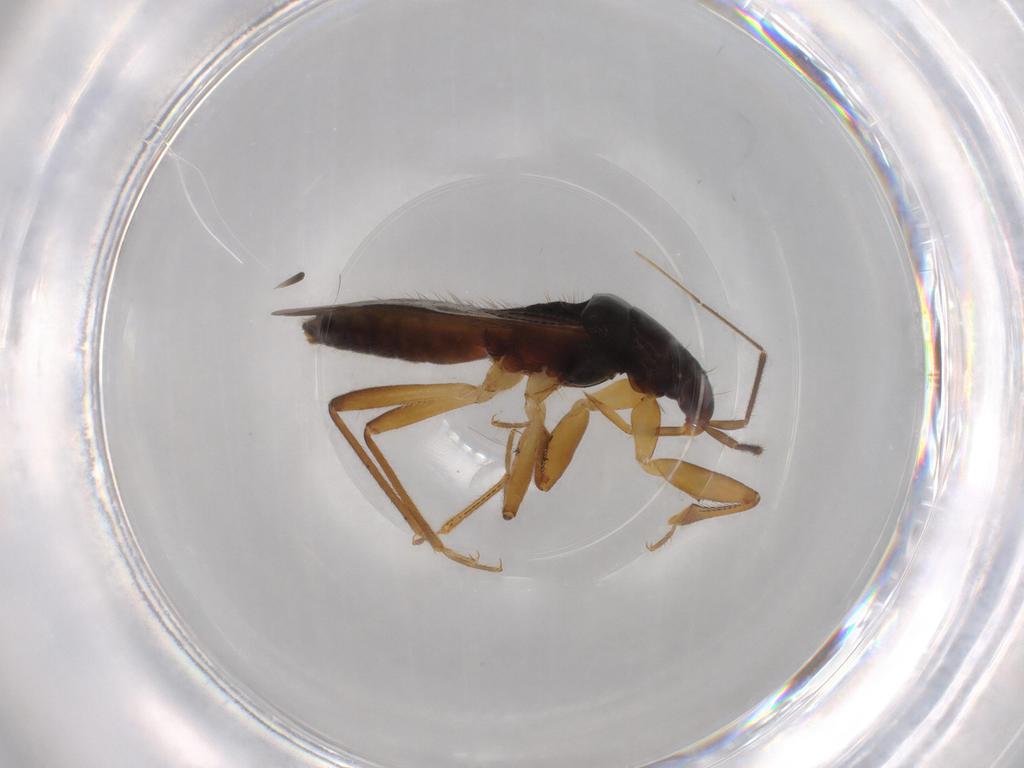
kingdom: Animalia
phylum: Arthropoda
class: Insecta
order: Hemiptera
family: Nabidae
